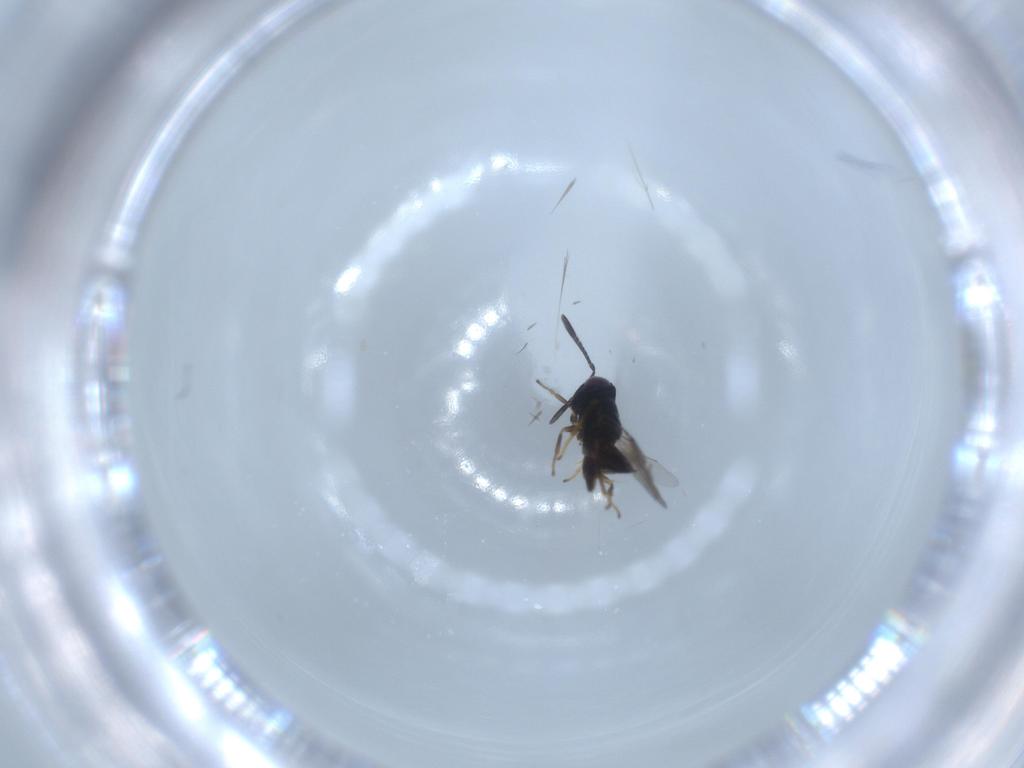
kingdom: Animalia
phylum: Arthropoda
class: Insecta
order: Hymenoptera
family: Encyrtidae
